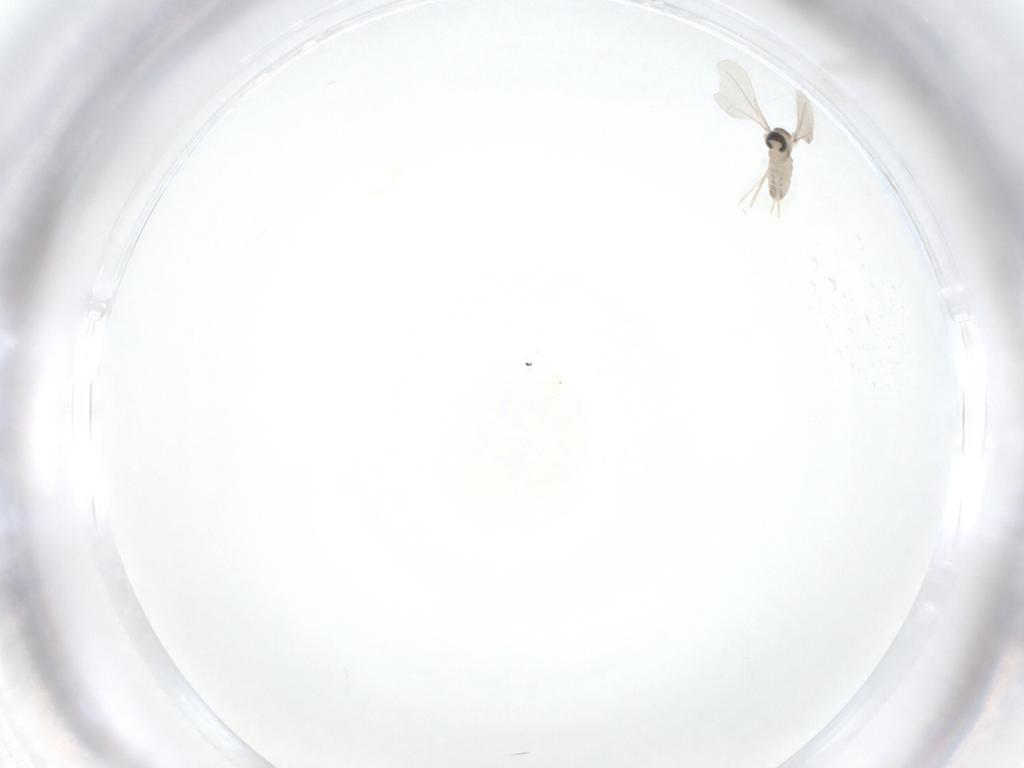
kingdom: Animalia
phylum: Arthropoda
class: Insecta
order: Diptera
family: Cecidomyiidae
